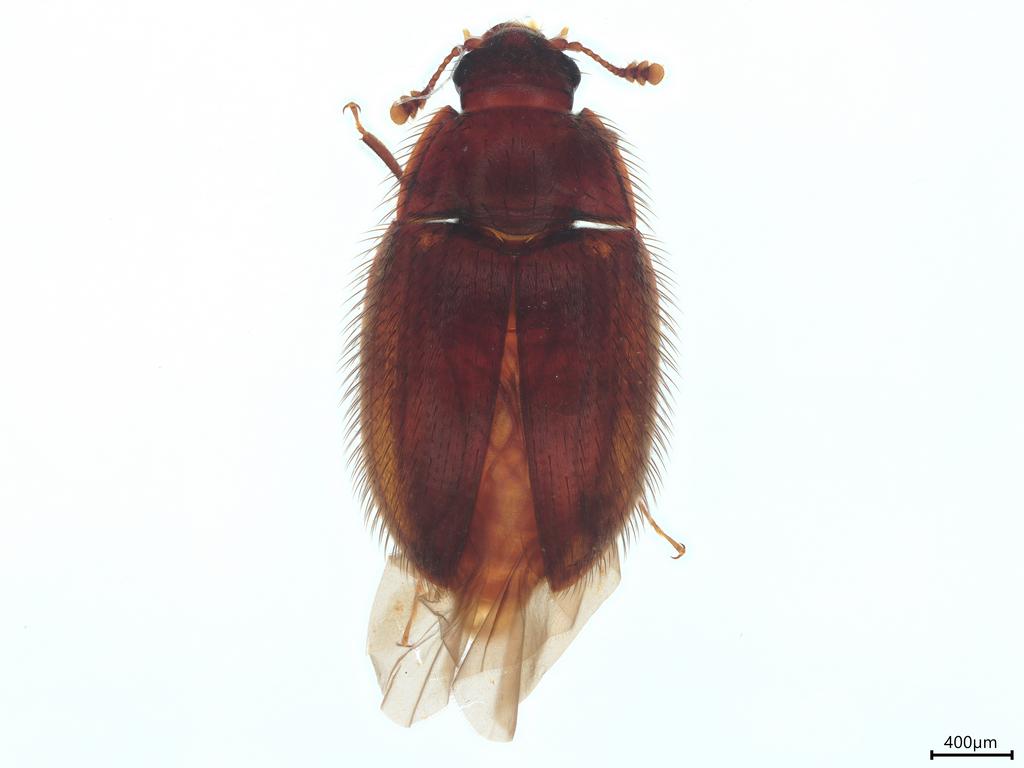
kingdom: Animalia
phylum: Arthropoda
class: Insecta
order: Coleoptera
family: Biphyllidae
